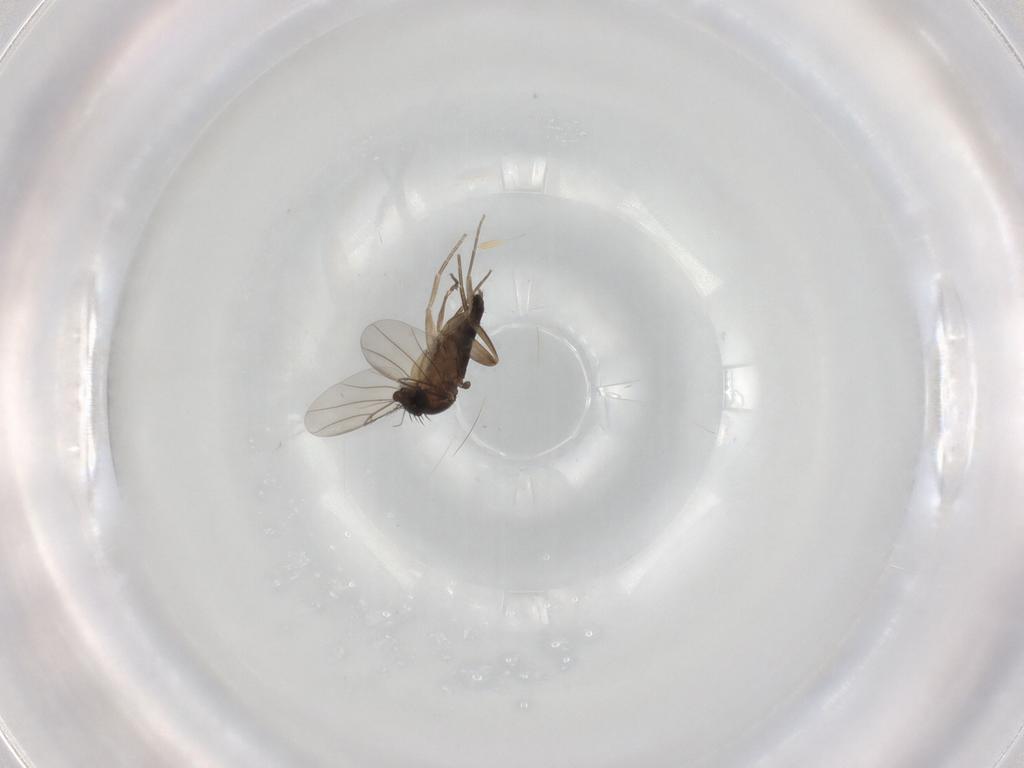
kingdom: Animalia
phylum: Arthropoda
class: Insecta
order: Diptera
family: Phoridae
